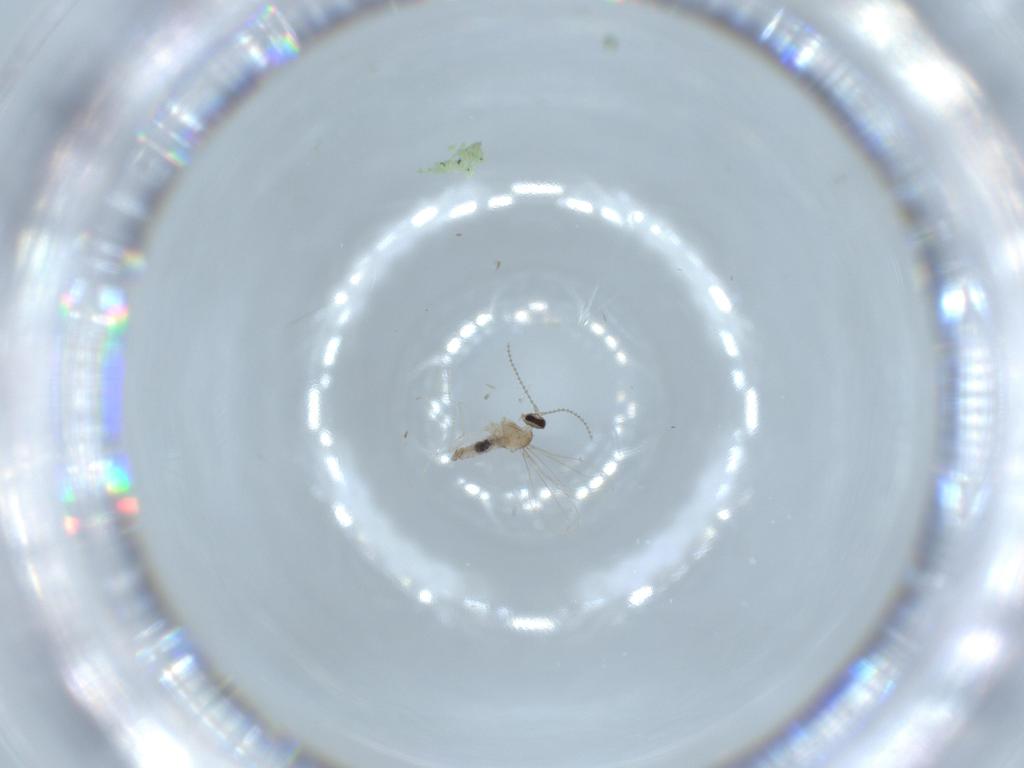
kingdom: Animalia
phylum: Arthropoda
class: Insecta
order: Diptera
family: Cecidomyiidae
